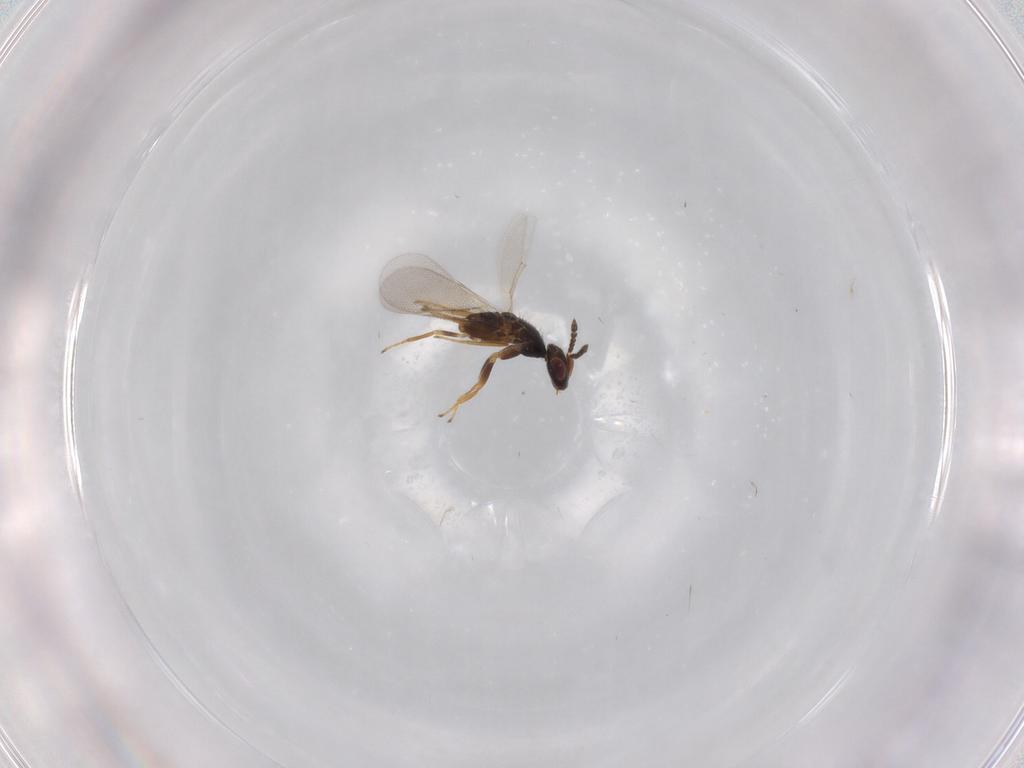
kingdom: Animalia
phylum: Arthropoda
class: Insecta
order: Hymenoptera
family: Eulophidae
